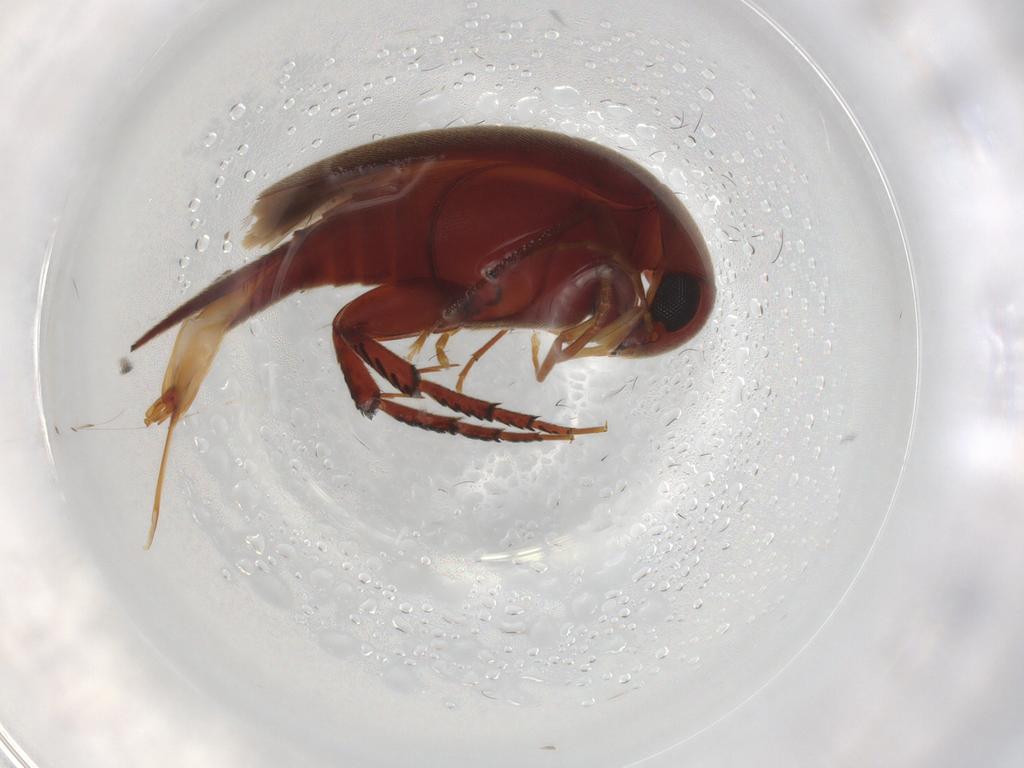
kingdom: Animalia
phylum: Arthropoda
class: Insecta
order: Coleoptera
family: Mordellidae
